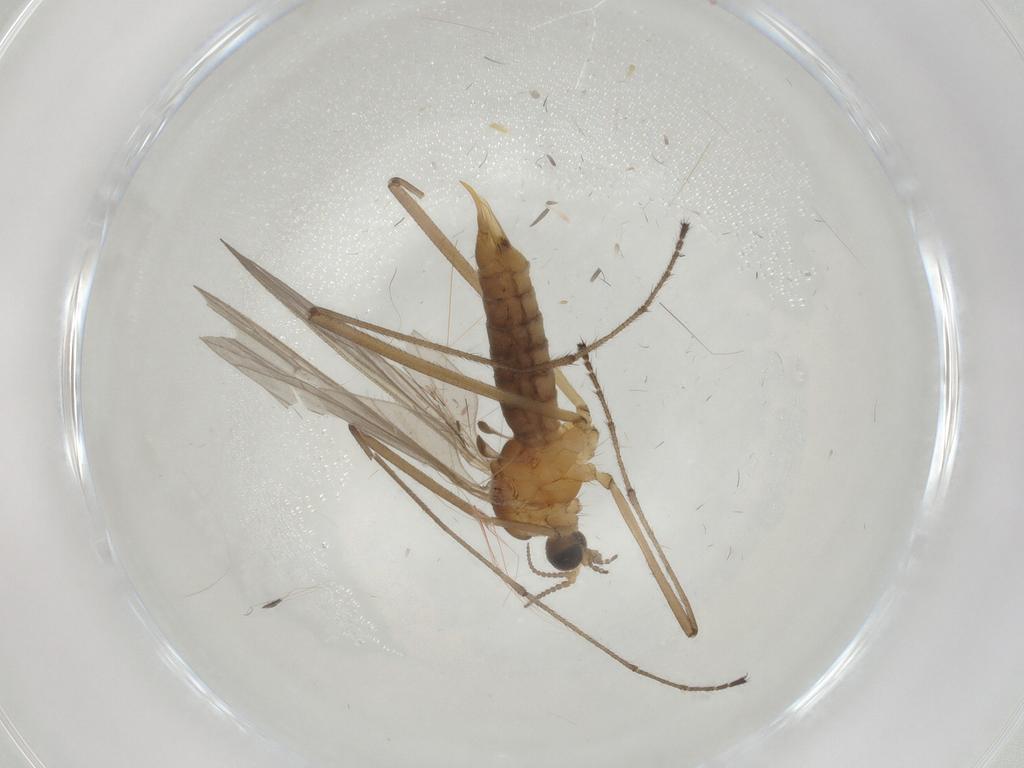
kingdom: Animalia
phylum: Arthropoda
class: Insecta
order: Diptera
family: Limoniidae
